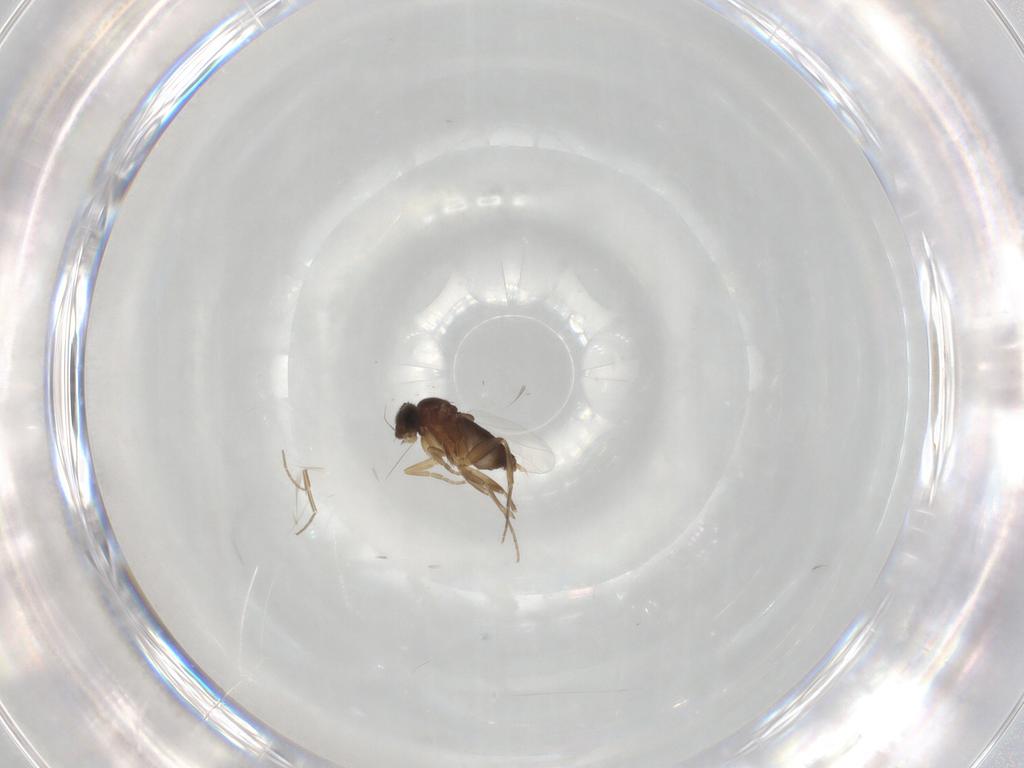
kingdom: Animalia
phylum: Arthropoda
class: Insecta
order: Diptera
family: Phoridae
